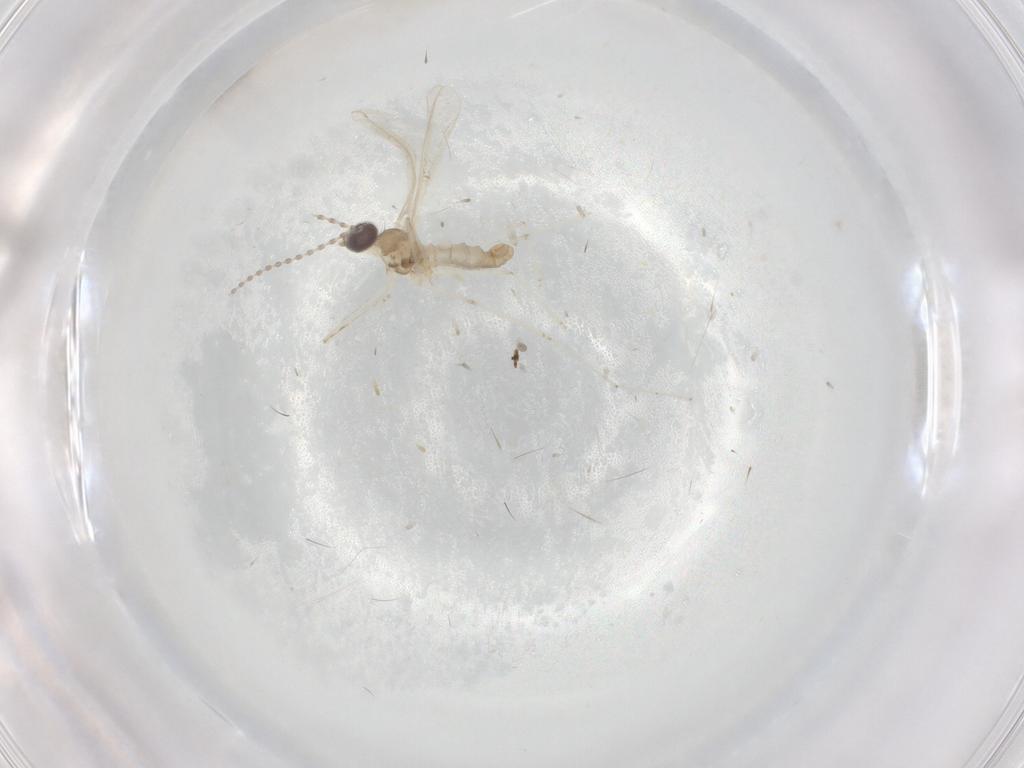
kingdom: Animalia
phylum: Arthropoda
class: Insecta
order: Diptera
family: Cecidomyiidae
